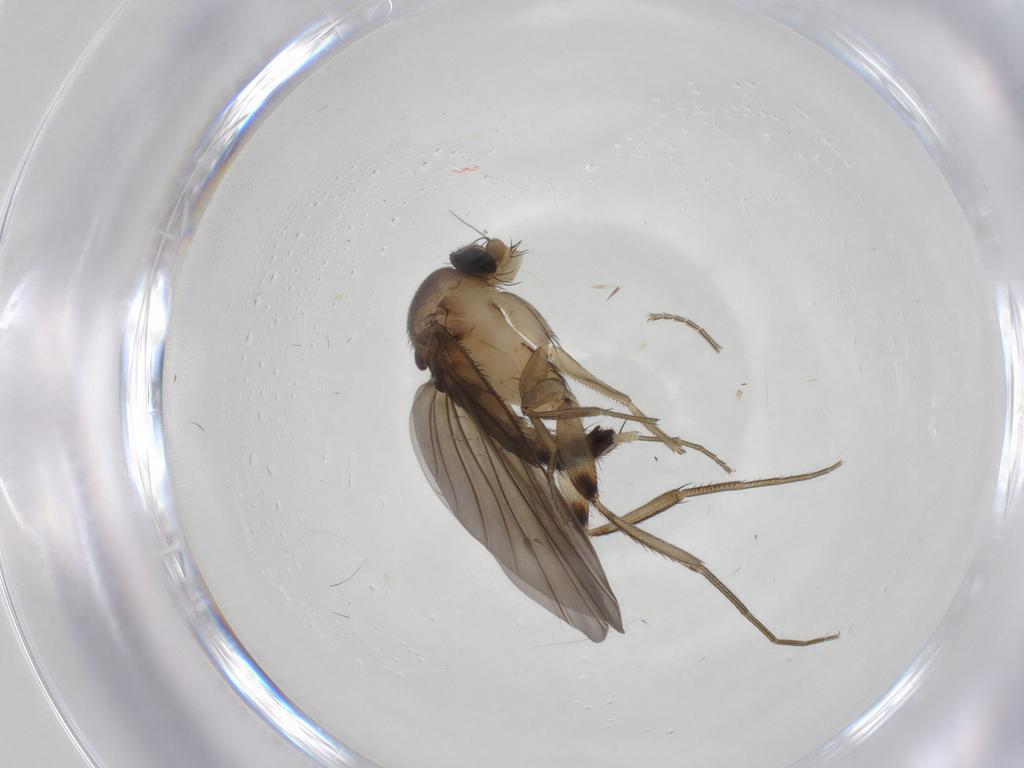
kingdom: Animalia
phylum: Arthropoda
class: Insecta
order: Diptera
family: Phoridae
